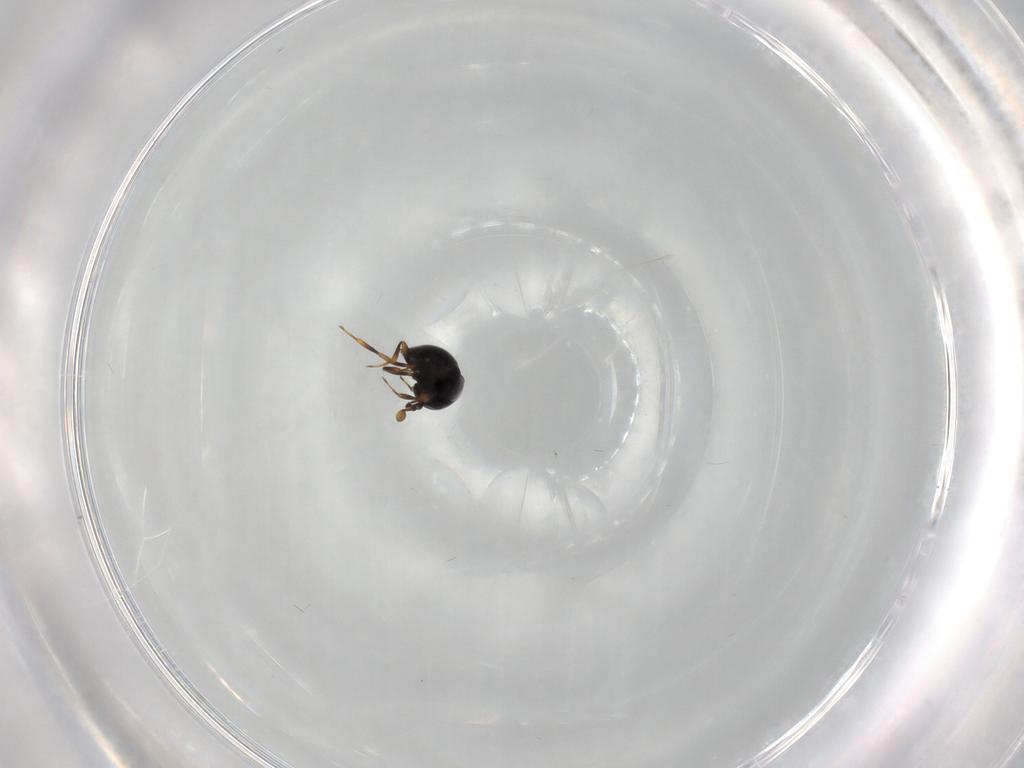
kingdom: Animalia
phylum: Arthropoda
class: Insecta
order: Hymenoptera
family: Scelionidae
